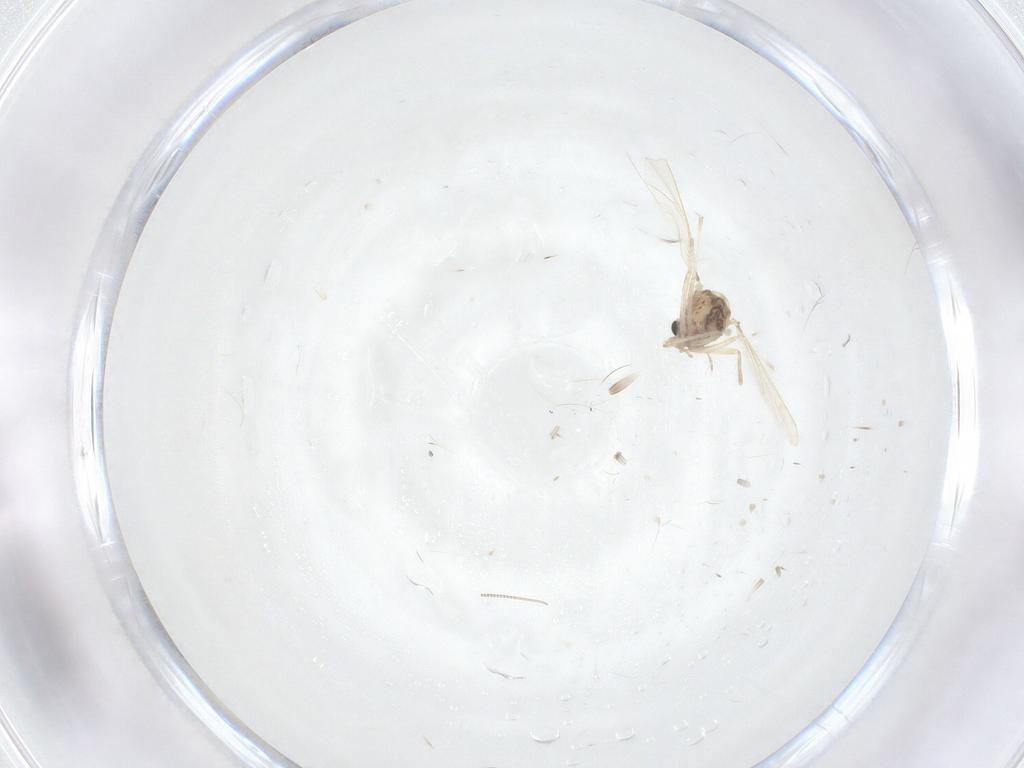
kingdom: Animalia
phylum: Arthropoda
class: Insecta
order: Diptera
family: Chironomidae
